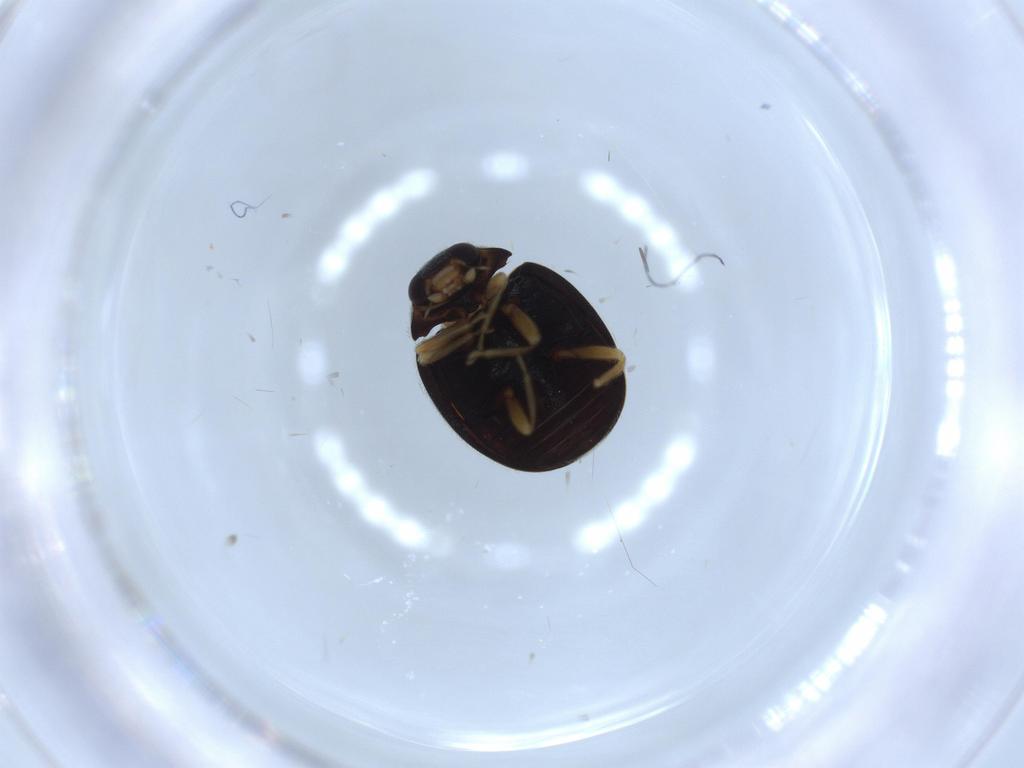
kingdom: Animalia
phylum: Arthropoda
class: Insecta
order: Coleoptera
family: Coccinellidae
